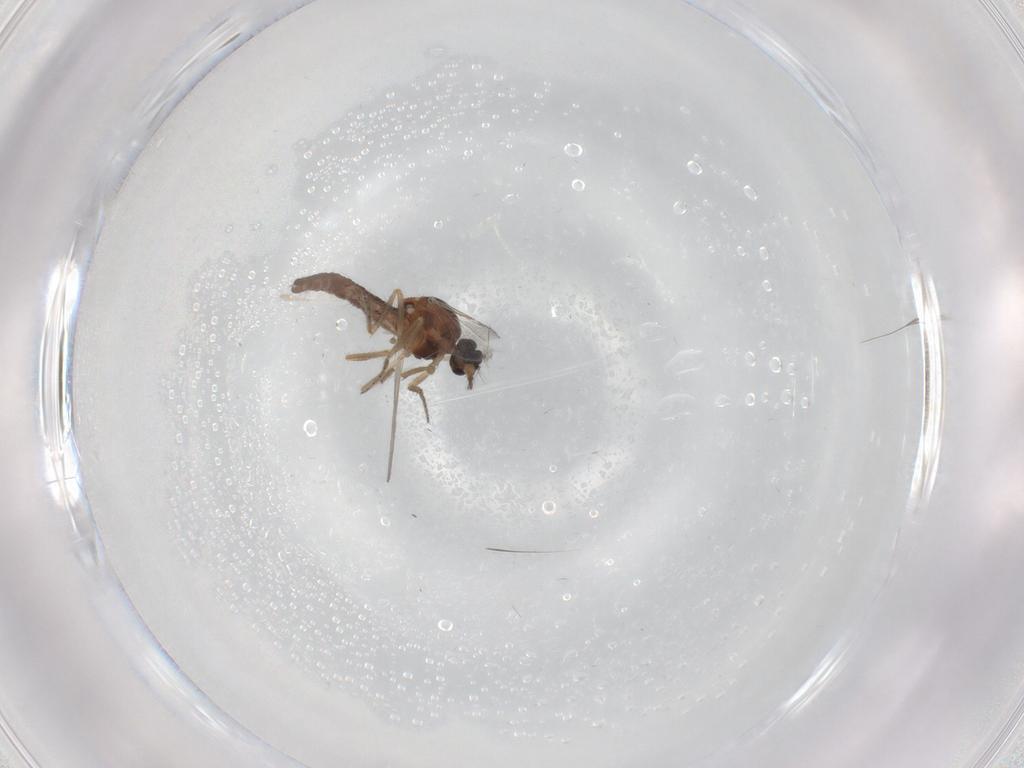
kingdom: Animalia
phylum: Arthropoda
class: Insecta
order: Diptera
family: Ceratopogonidae
